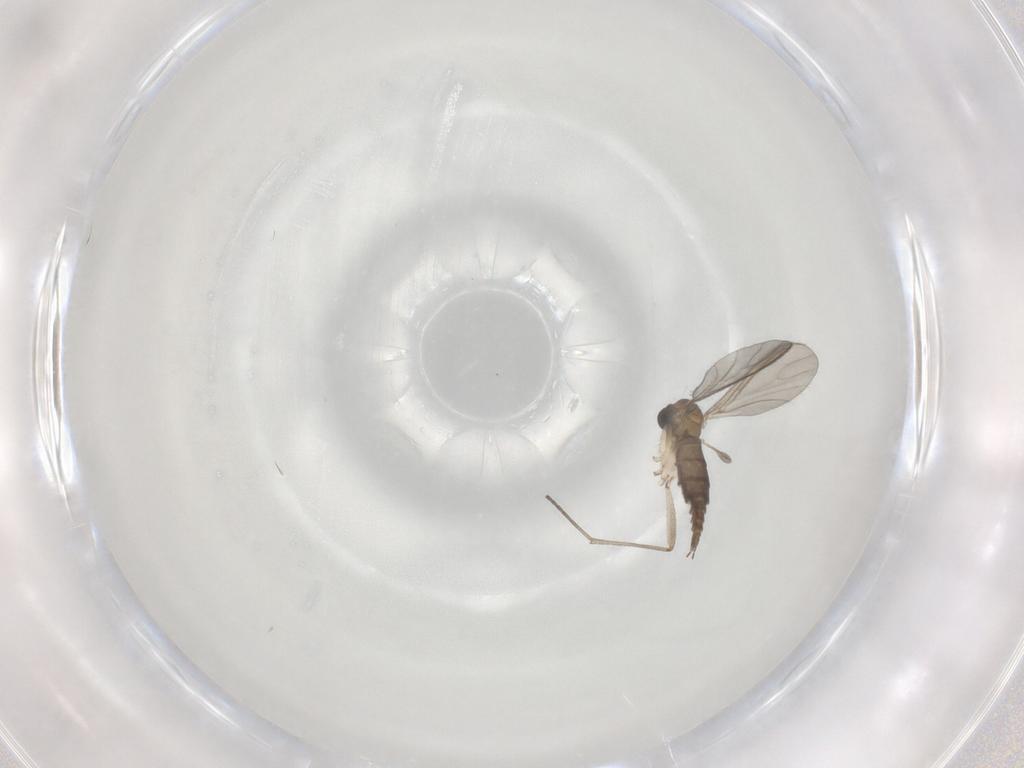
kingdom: Animalia
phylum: Arthropoda
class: Insecta
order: Diptera
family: Sciaridae
